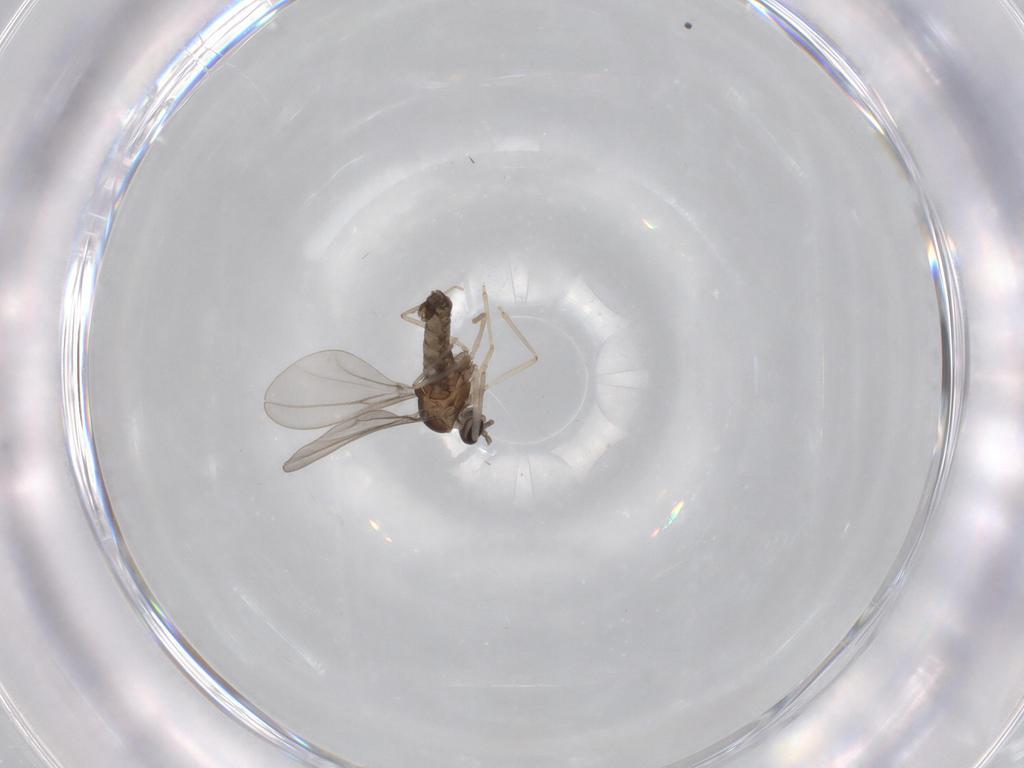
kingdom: Animalia
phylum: Arthropoda
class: Insecta
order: Diptera
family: Cecidomyiidae
